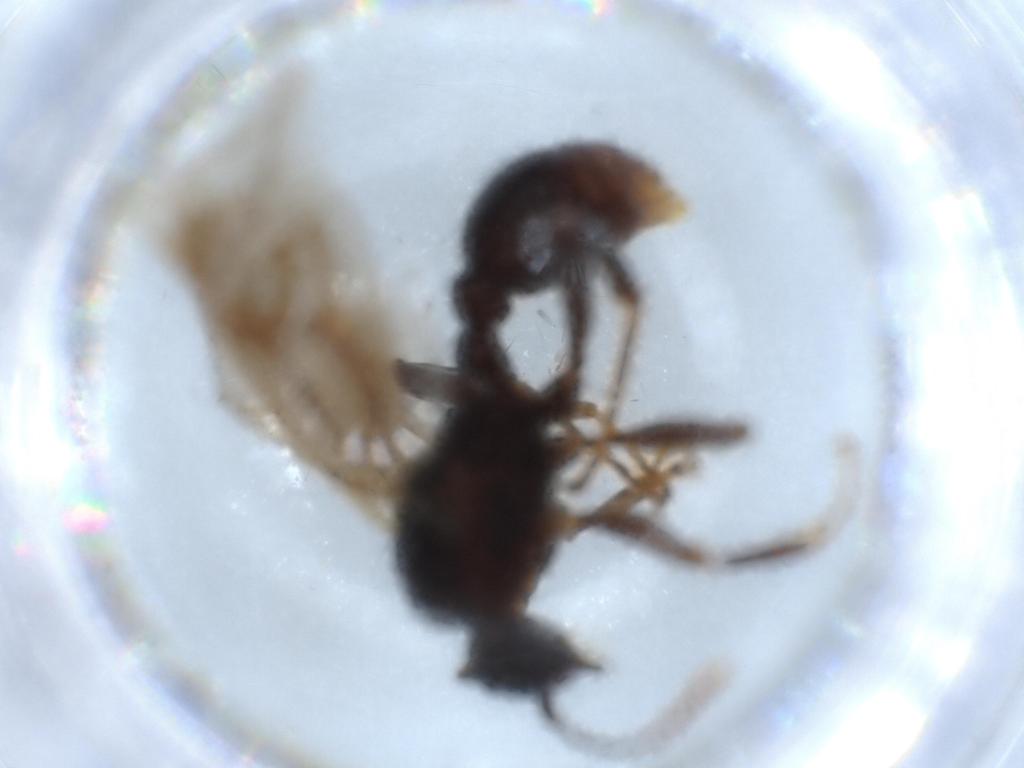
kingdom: Animalia
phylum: Arthropoda
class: Insecta
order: Hymenoptera
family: Formicidae
